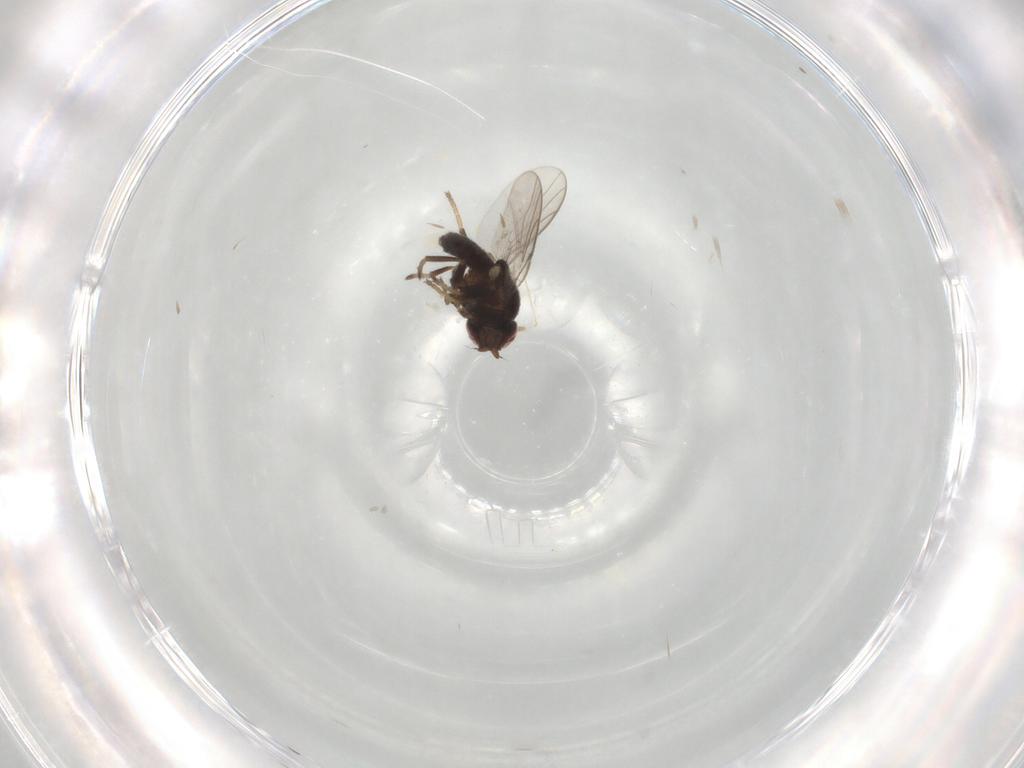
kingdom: Animalia
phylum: Arthropoda
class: Insecta
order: Diptera
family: Chloropidae
